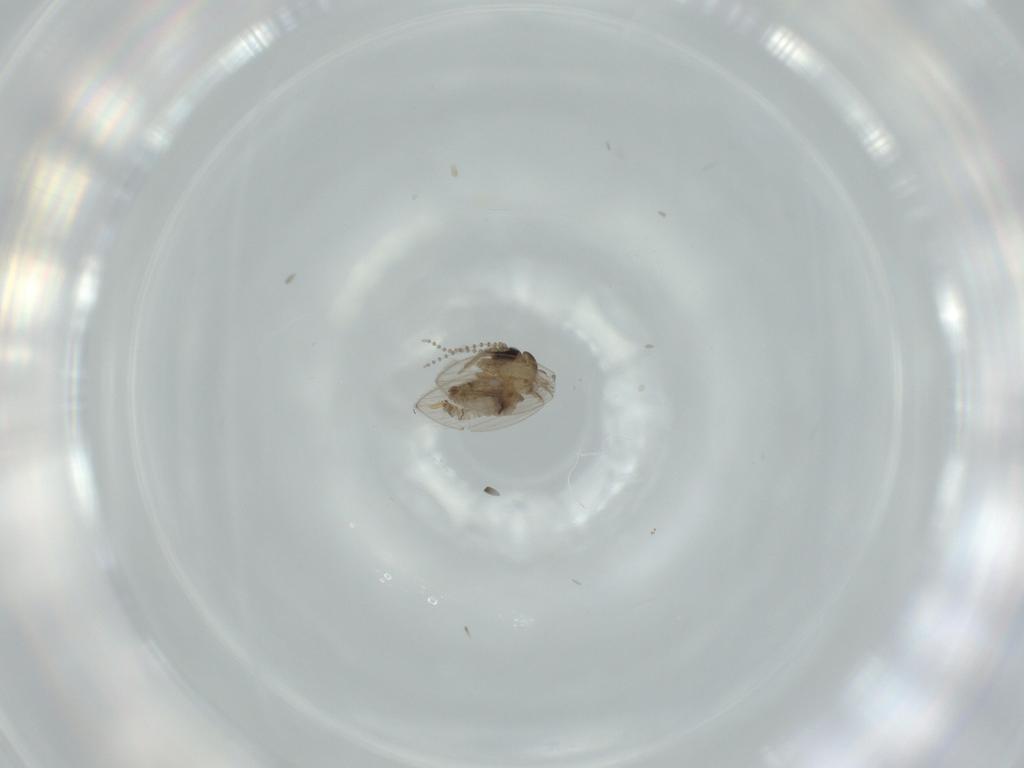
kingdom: Animalia
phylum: Arthropoda
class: Insecta
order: Diptera
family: Psychodidae
